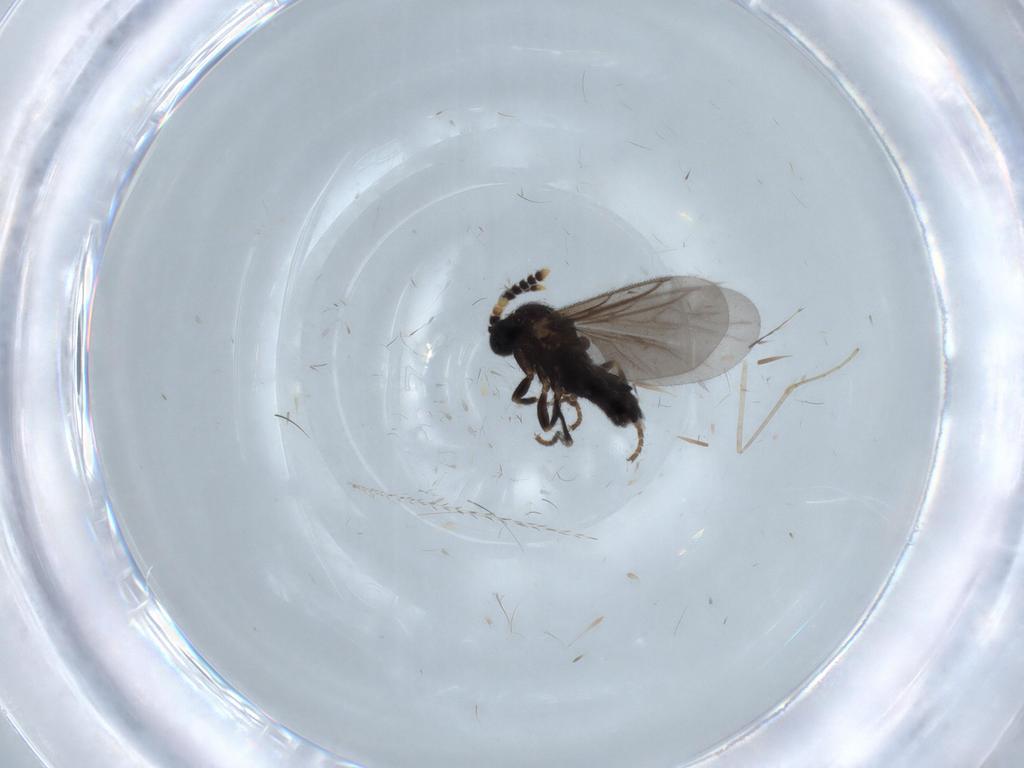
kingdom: Animalia
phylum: Arthropoda
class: Insecta
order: Diptera
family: Scatopsidae
